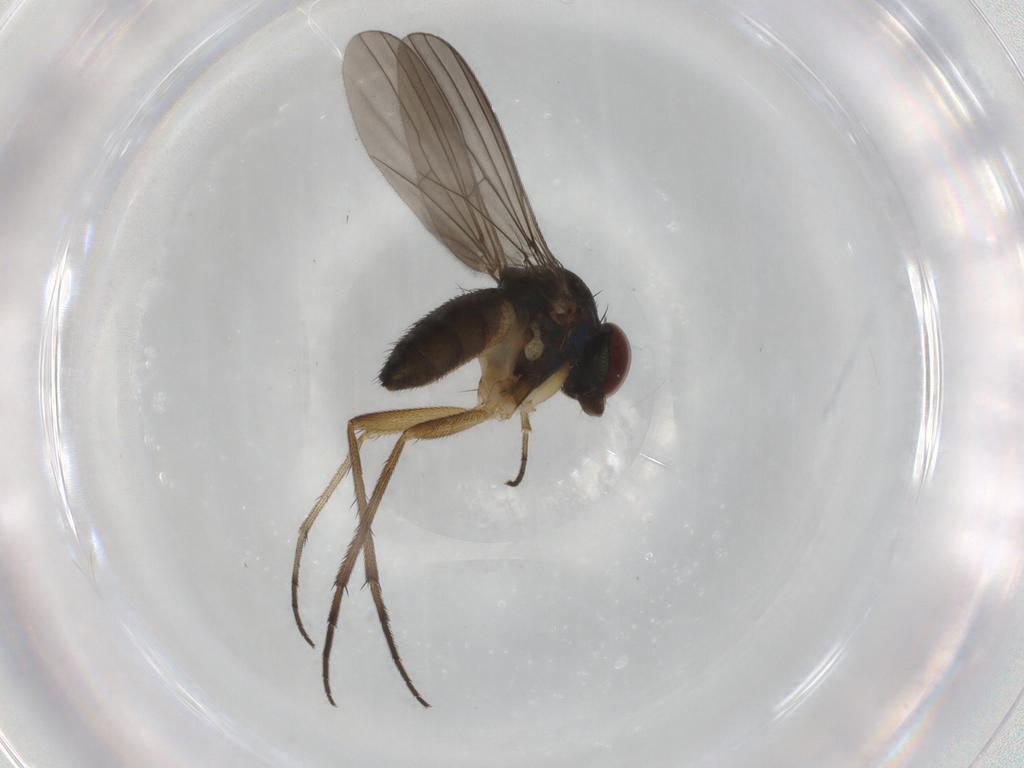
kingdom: Animalia
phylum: Arthropoda
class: Insecta
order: Diptera
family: Dolichopodidae
